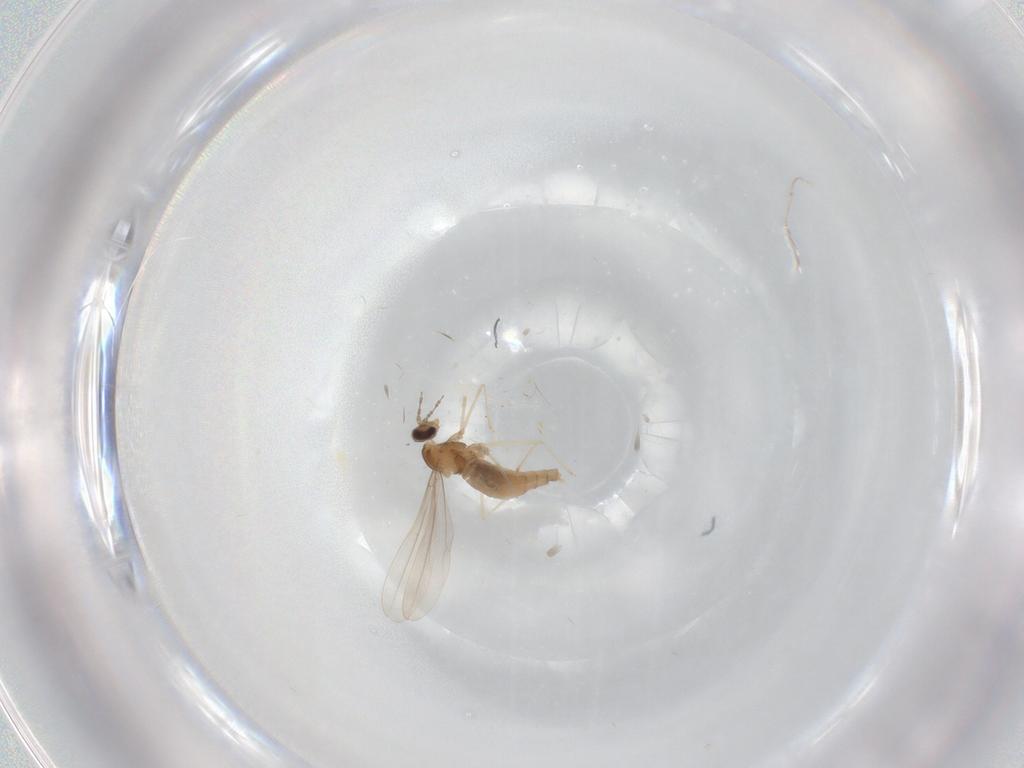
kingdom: Animalia
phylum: Arthropoda
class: Insecta
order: Diptera
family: Cecidomyiidae
